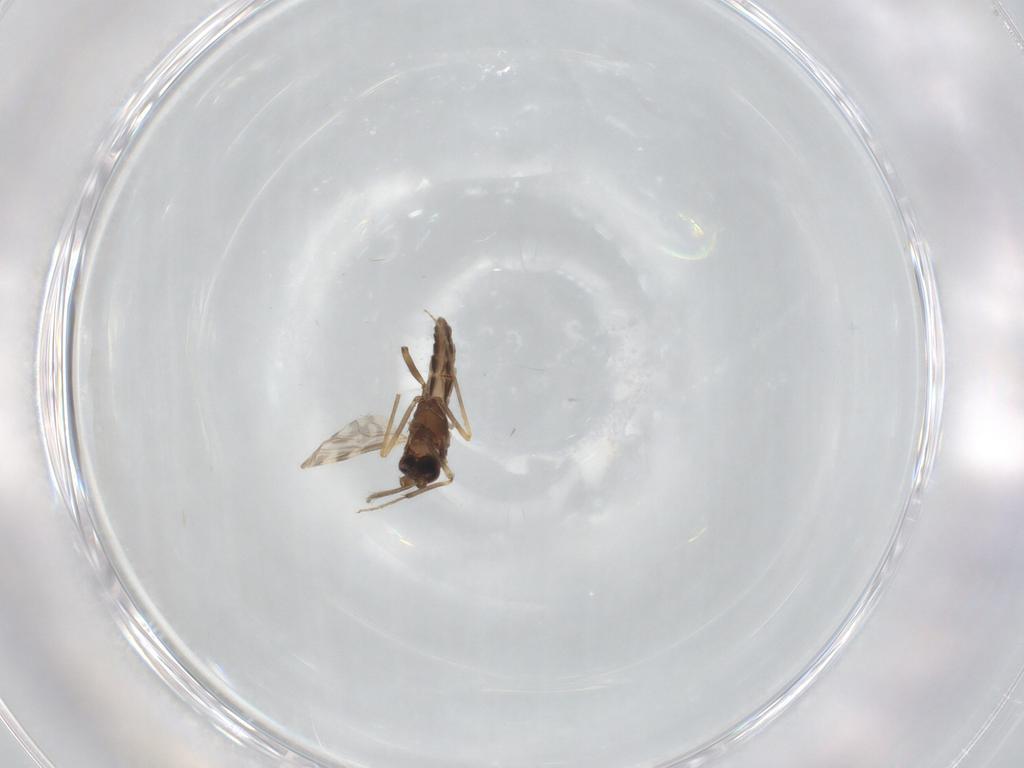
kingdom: Animalia
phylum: Arthropoda
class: Insecta
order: Diptera
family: Ceratopogonidae
